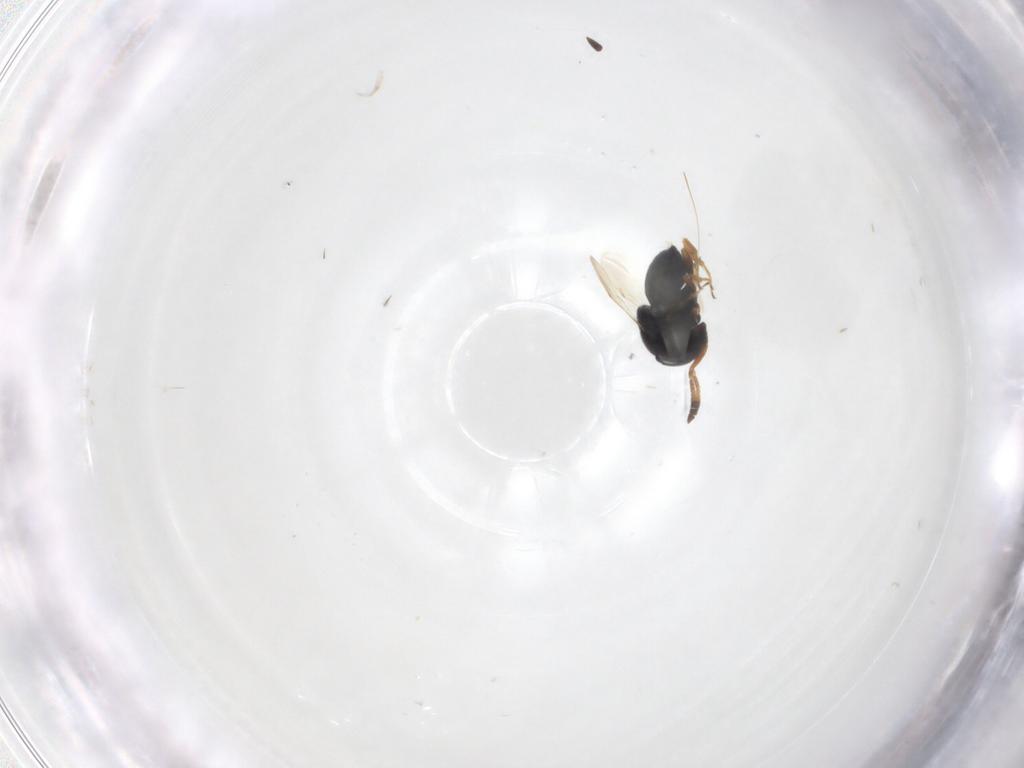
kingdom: Animalia
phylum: Arthropoda
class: Insecta
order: Hymenoptera
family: Scelionidae
